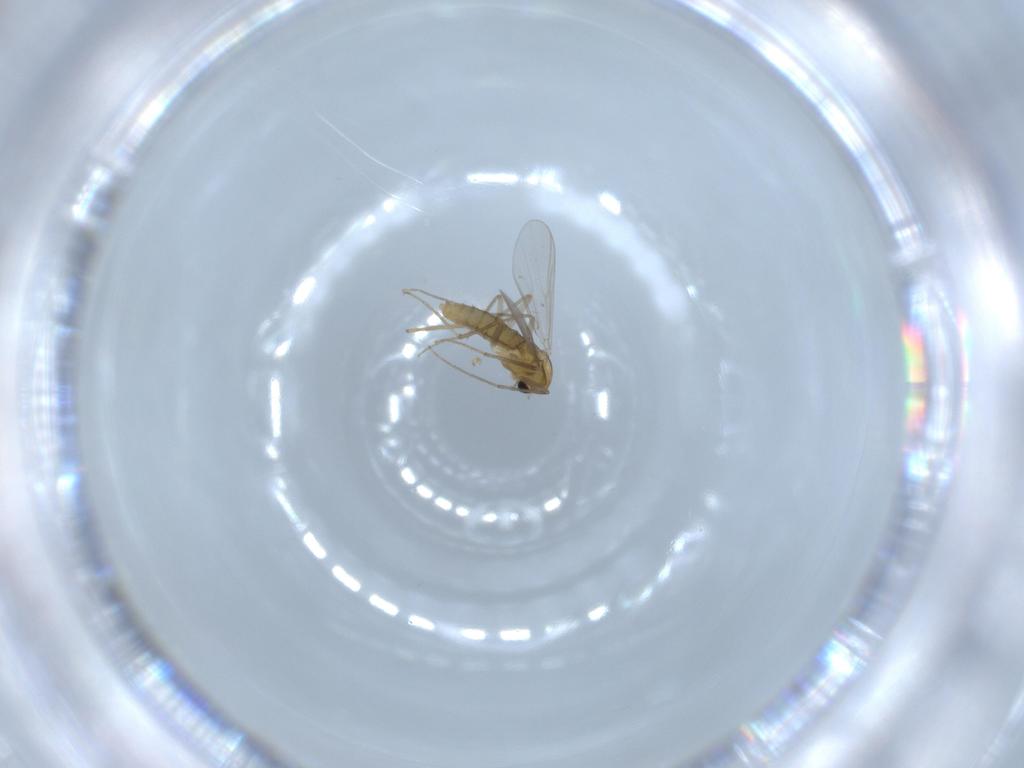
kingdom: Animalia
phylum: Arthropoda
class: Insecta
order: Diptera
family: Chironomidae
